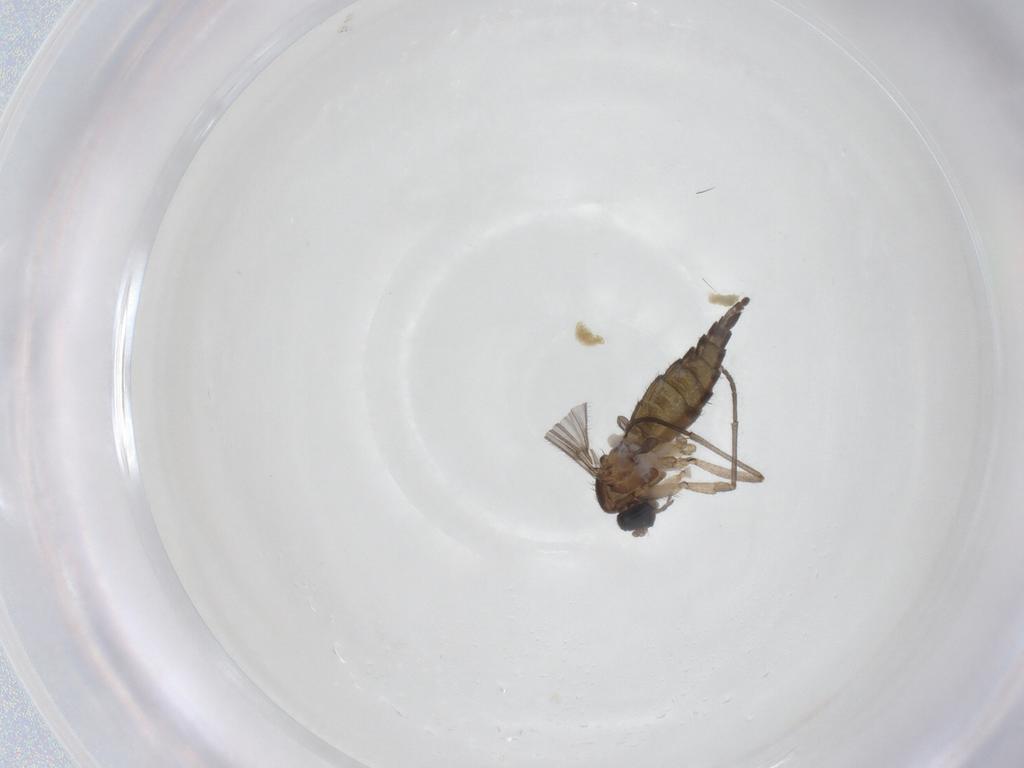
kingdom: Animalia
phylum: Arthropoda
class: Insecta
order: Diptera
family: Sciaridae
